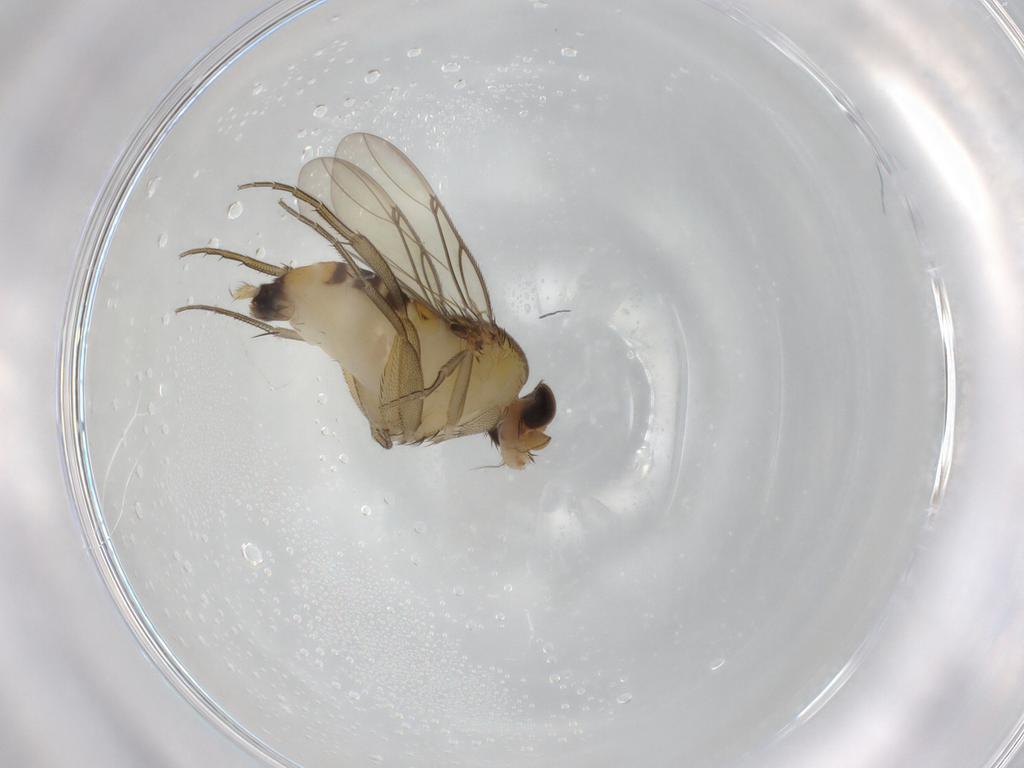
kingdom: Animalia
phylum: Arthropoda
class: Insecta
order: Diptera
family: Phoridae
